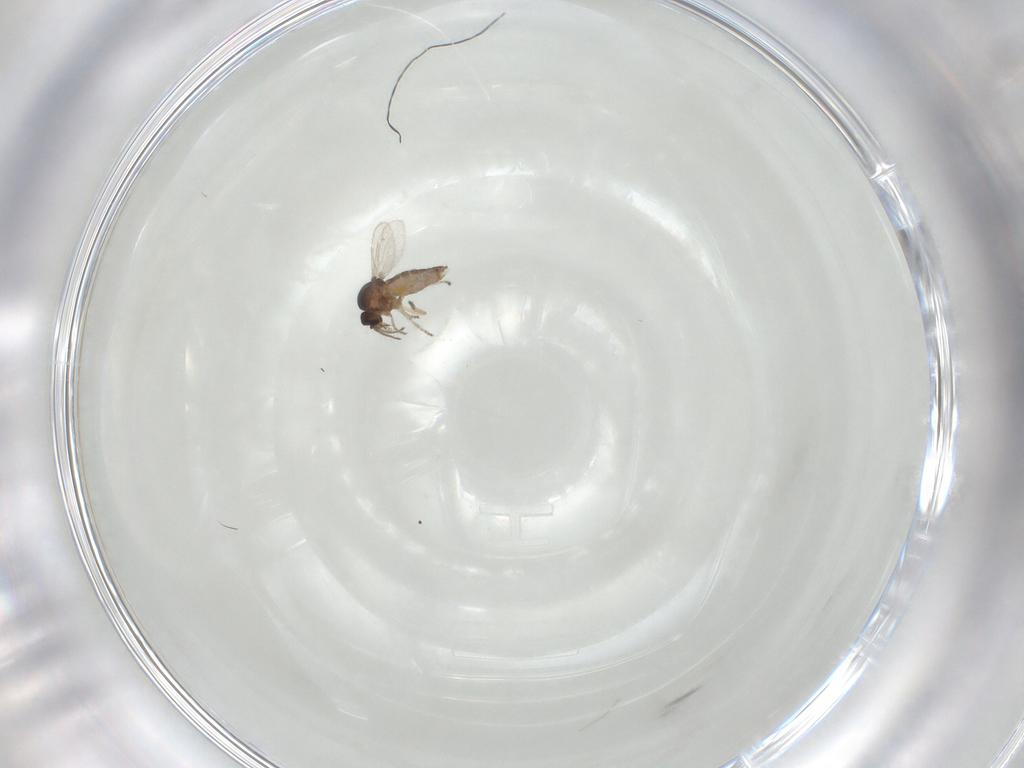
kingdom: Animalia
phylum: Arthropoda
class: Insecta
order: Diptera
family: Ceratopogonidae
